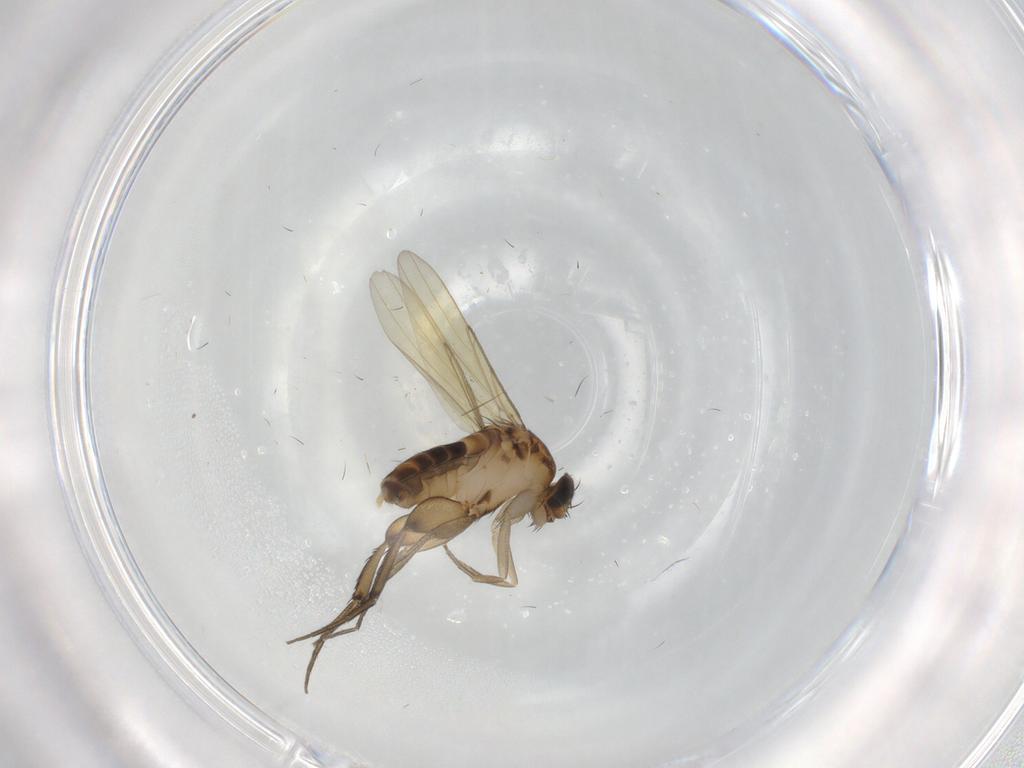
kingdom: Animalia
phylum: Arthropoda
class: Insecta
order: Diptera
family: Phoridae
